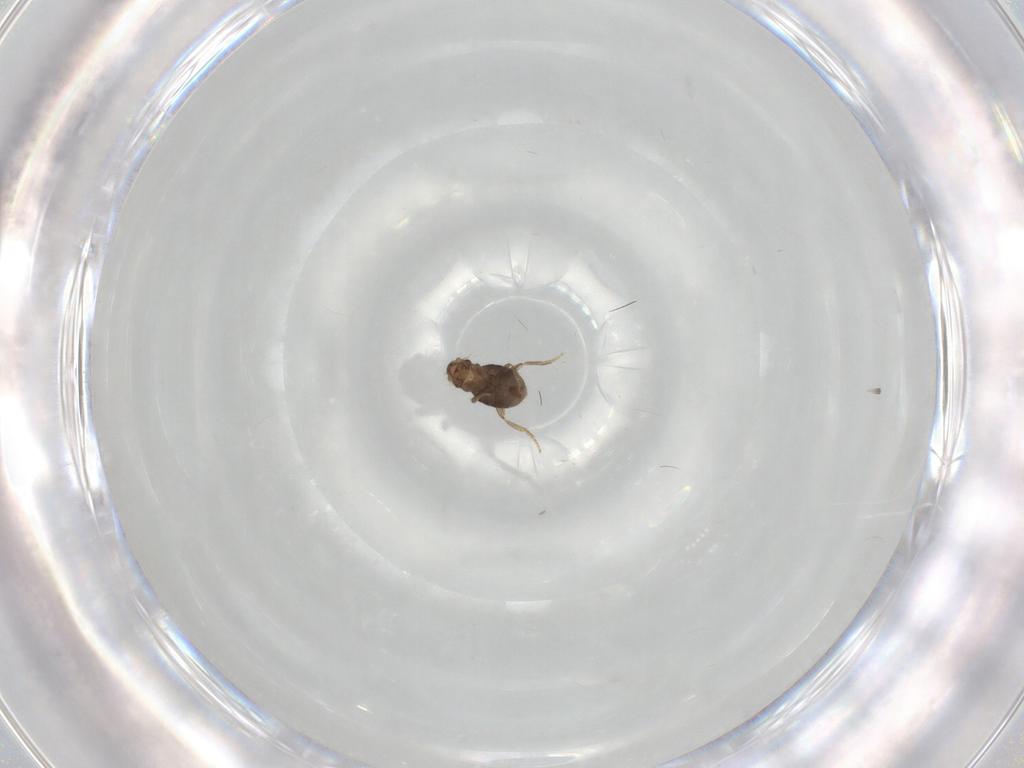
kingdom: Animalia
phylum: Arthropoda
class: Insecta
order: Diptera
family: Tabanidae
